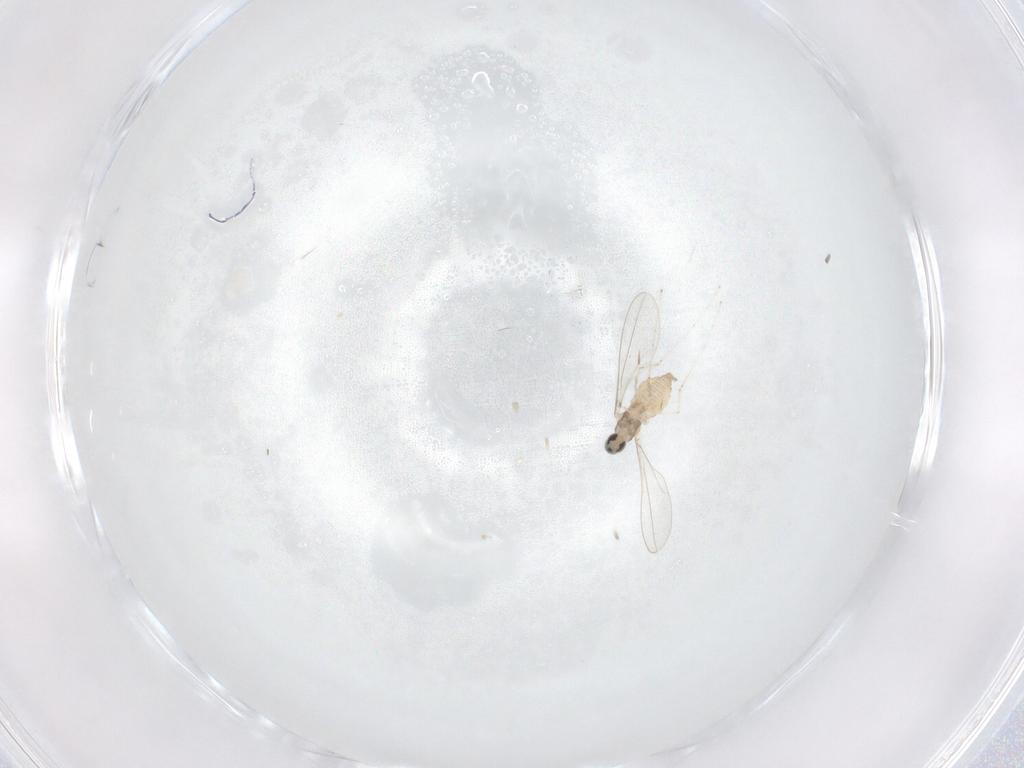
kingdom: Animalia
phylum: Arthropoda
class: Insecta
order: Diptera
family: Cecidomyiidae
